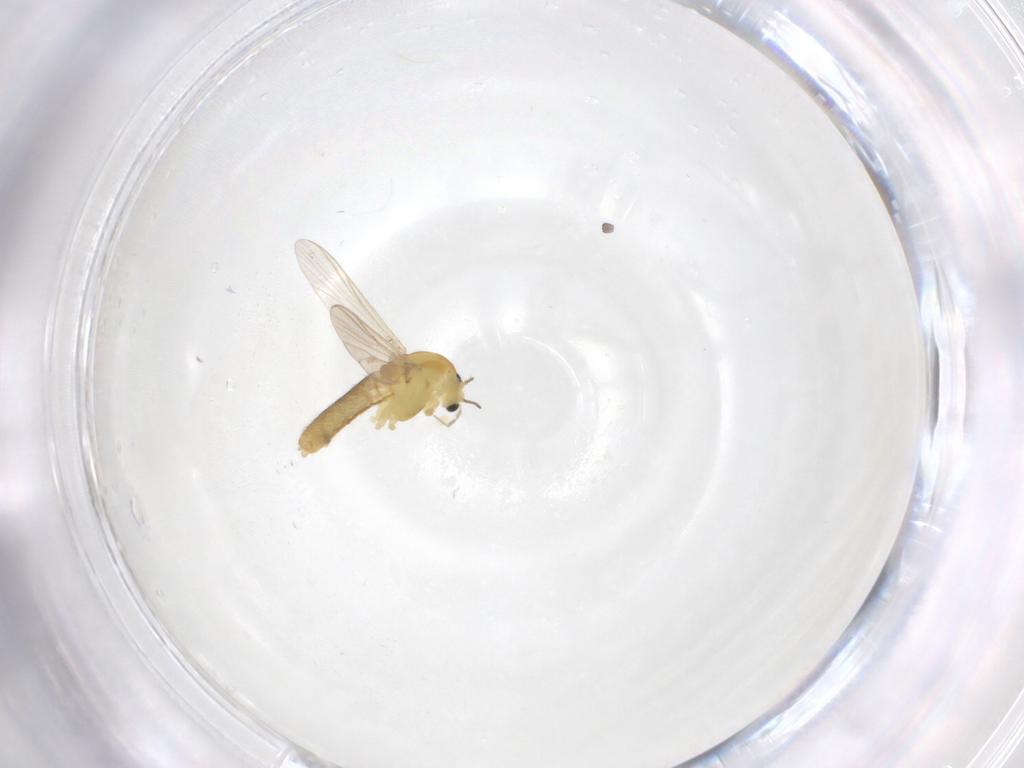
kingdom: Animalia
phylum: Arthropoda
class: Insecta
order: Diptera
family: Chironomidae
